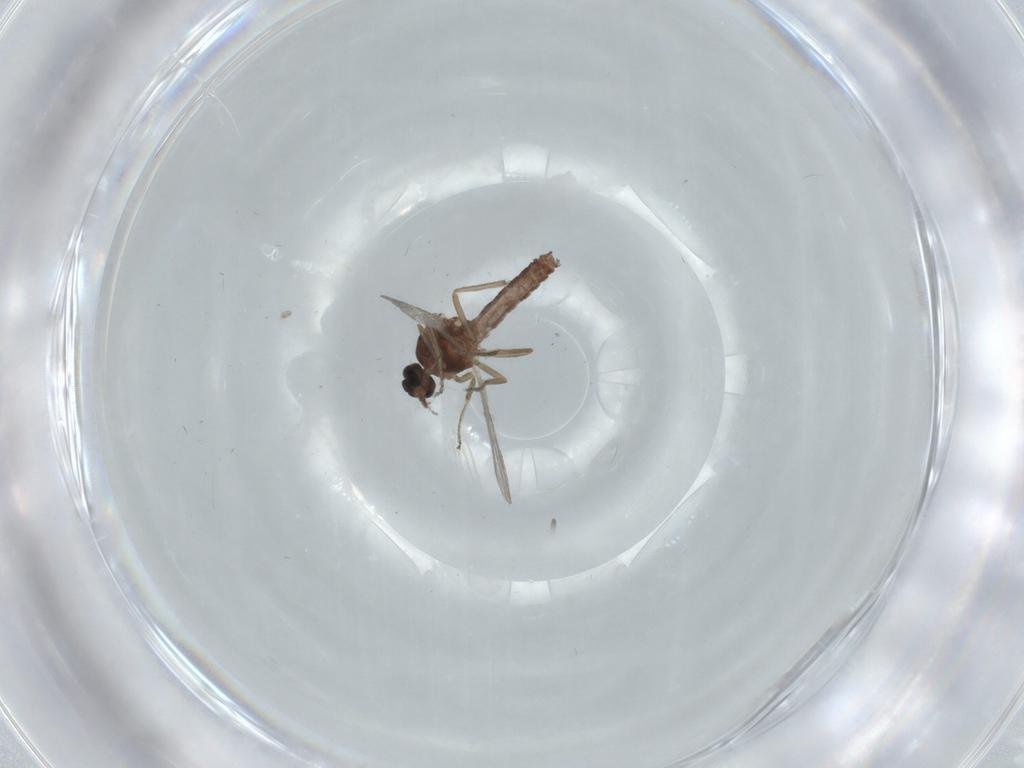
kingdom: Animalia
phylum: Arthropoda
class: Insecta
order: Diptera
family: Ceratopogonidae
